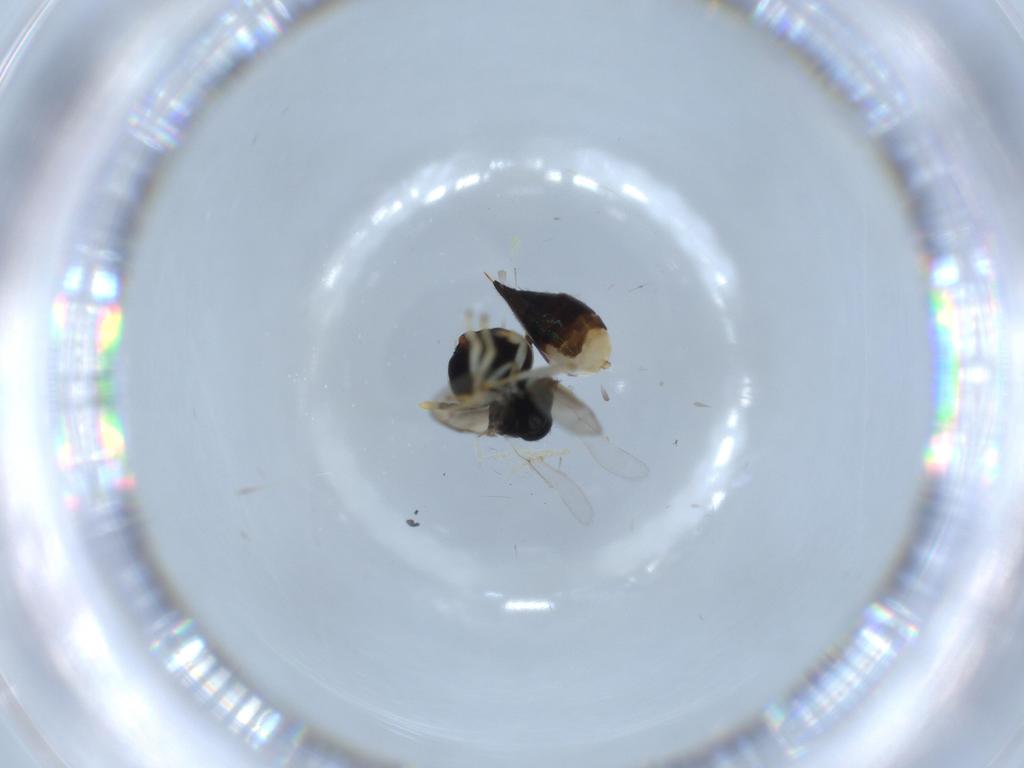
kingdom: Animalia
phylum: Arthropoda
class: Insecta
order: Hymenoptera
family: Pteromalidae
